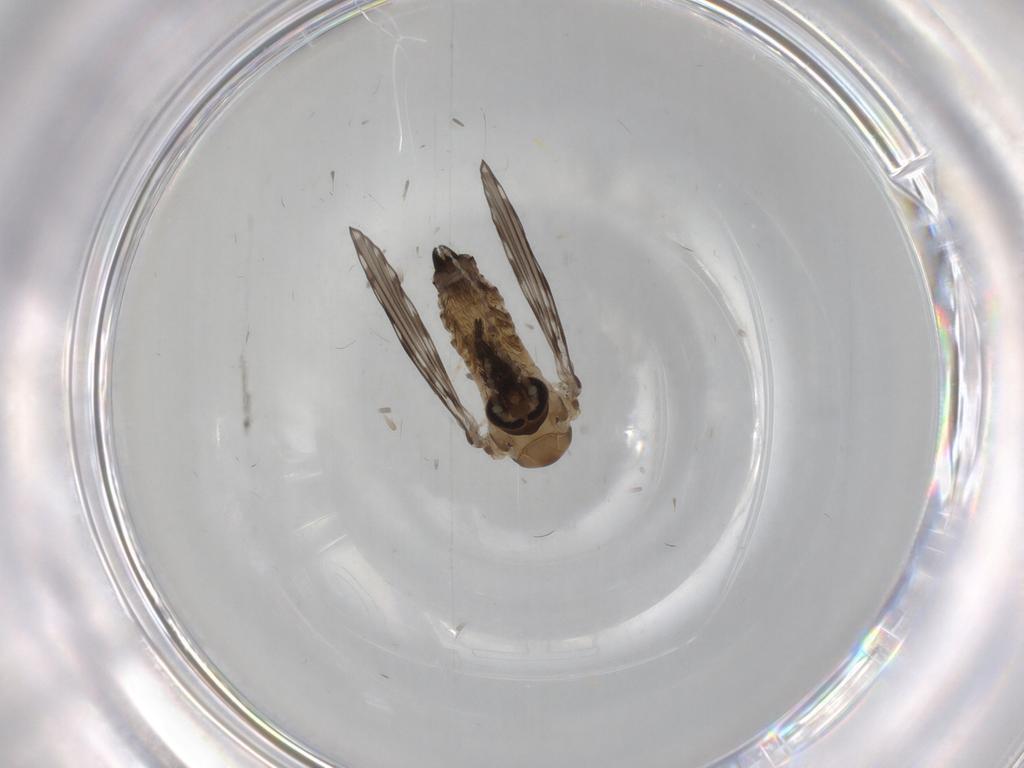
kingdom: Animalia
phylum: Arthropoda
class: Insecta
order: Diptera
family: Psychodidae
